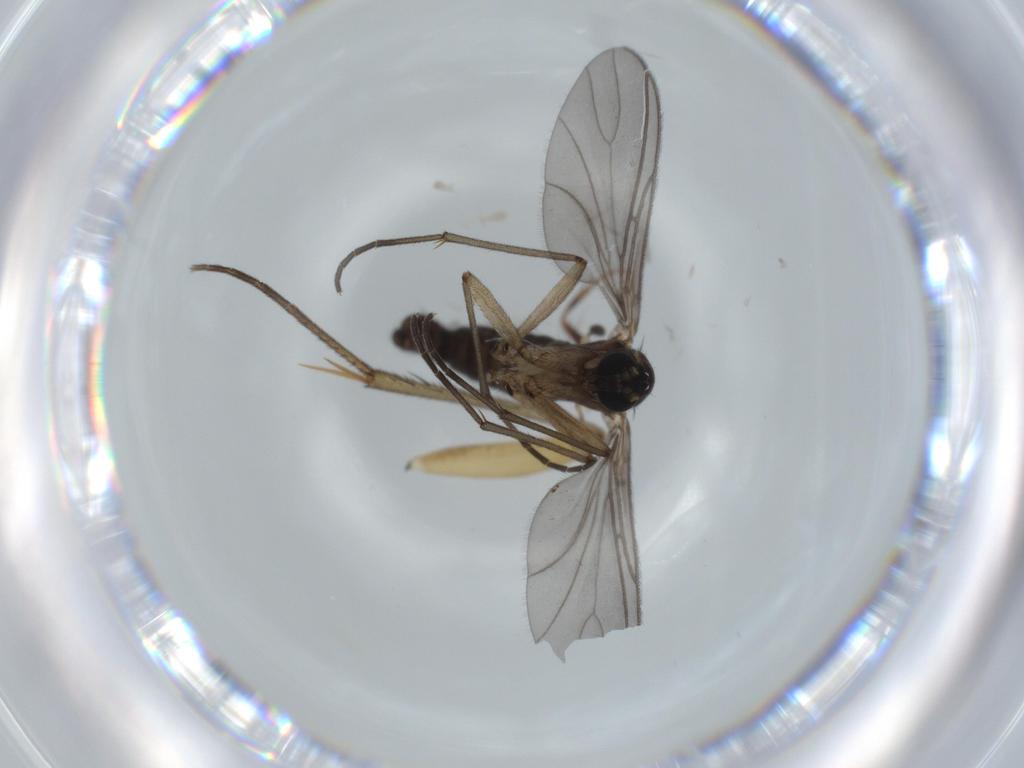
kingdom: Animalia
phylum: Arthropoda
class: Insecta
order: Diptera
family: Sciaridae
